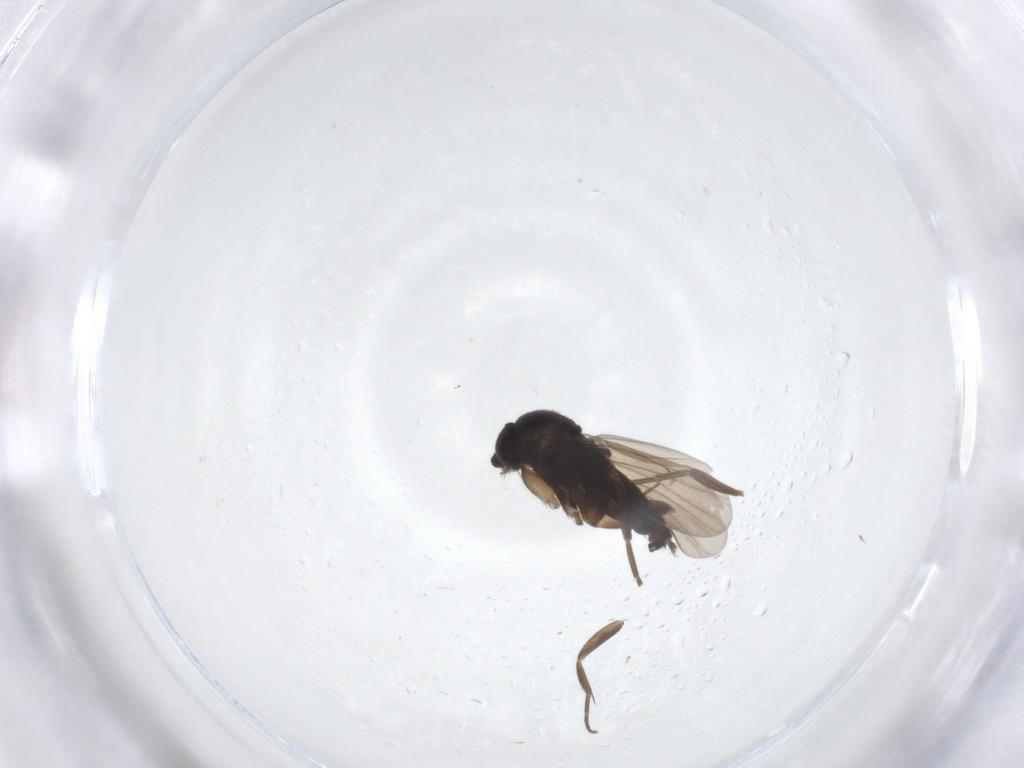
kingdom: Animalia
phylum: Arthropoda
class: Insecta
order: Diptera
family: Phoridae
